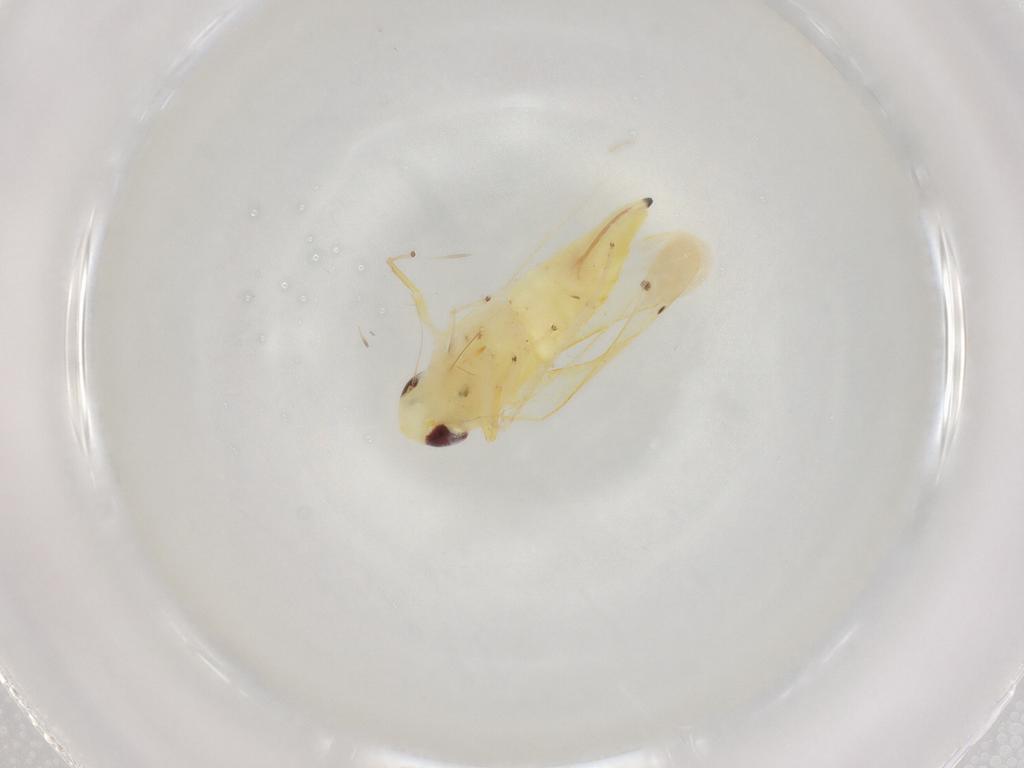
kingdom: Animalia
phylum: Arthropoda
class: Insecta
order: Hemiptera
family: Cicadellidae
